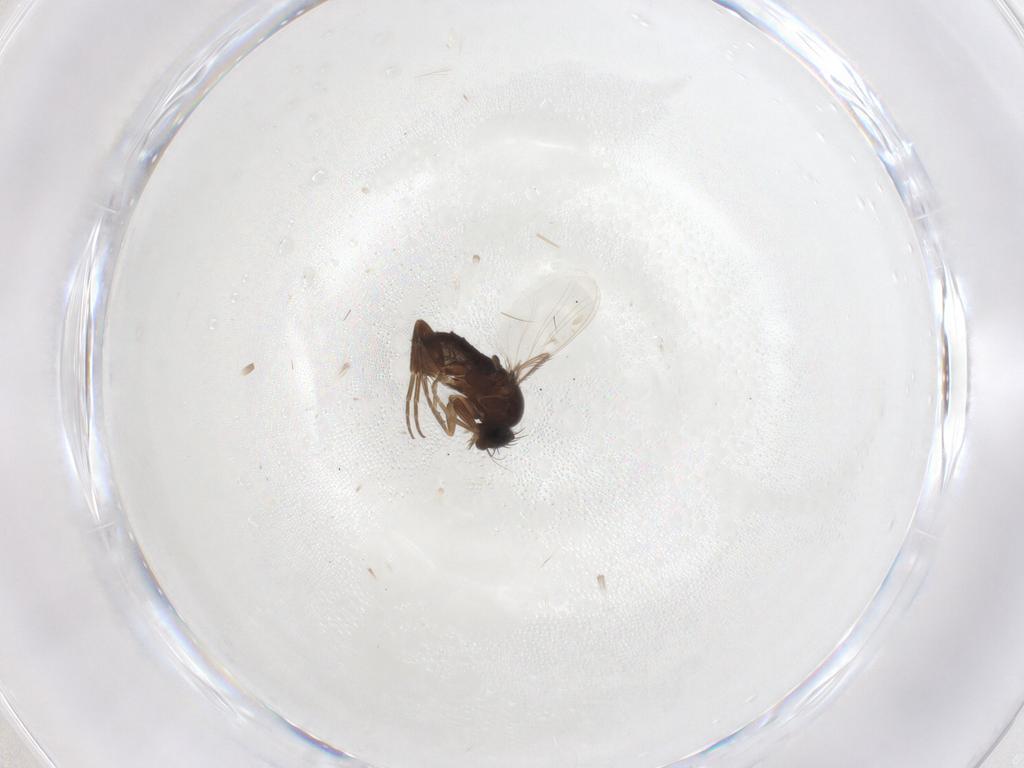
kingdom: Animalia
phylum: Arthropoda
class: Insecta
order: Diptera
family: Phoridae
